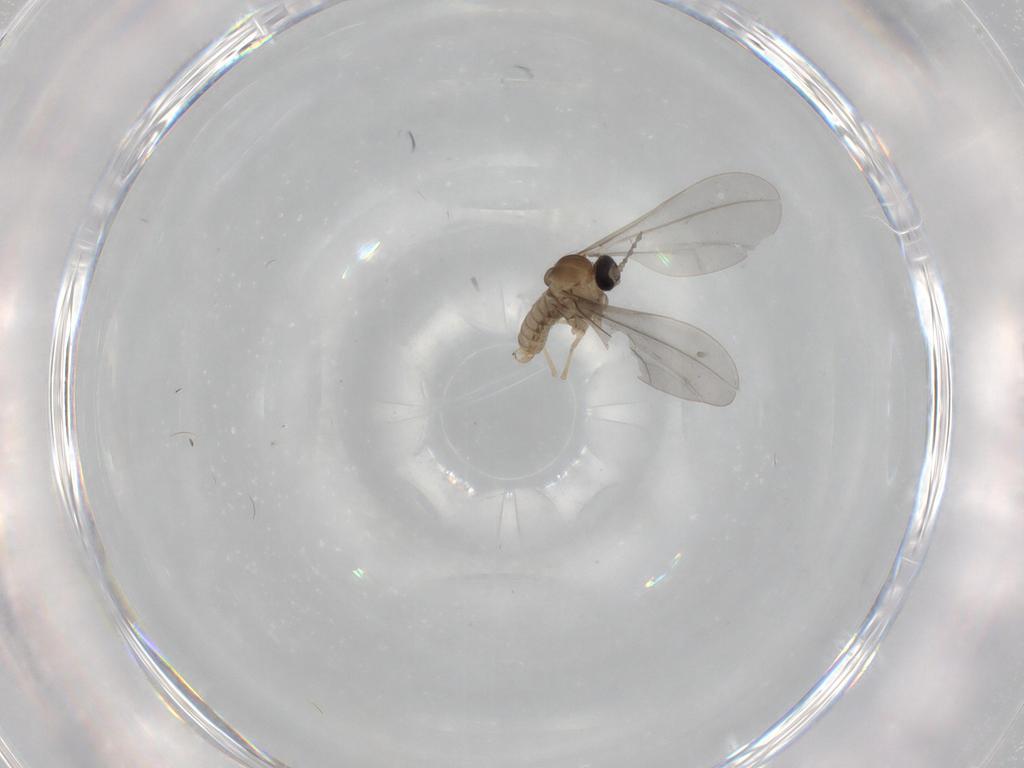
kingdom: Animalia
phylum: Arthropoda
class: Insecta
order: Diptera
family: Cecidomyiidae
